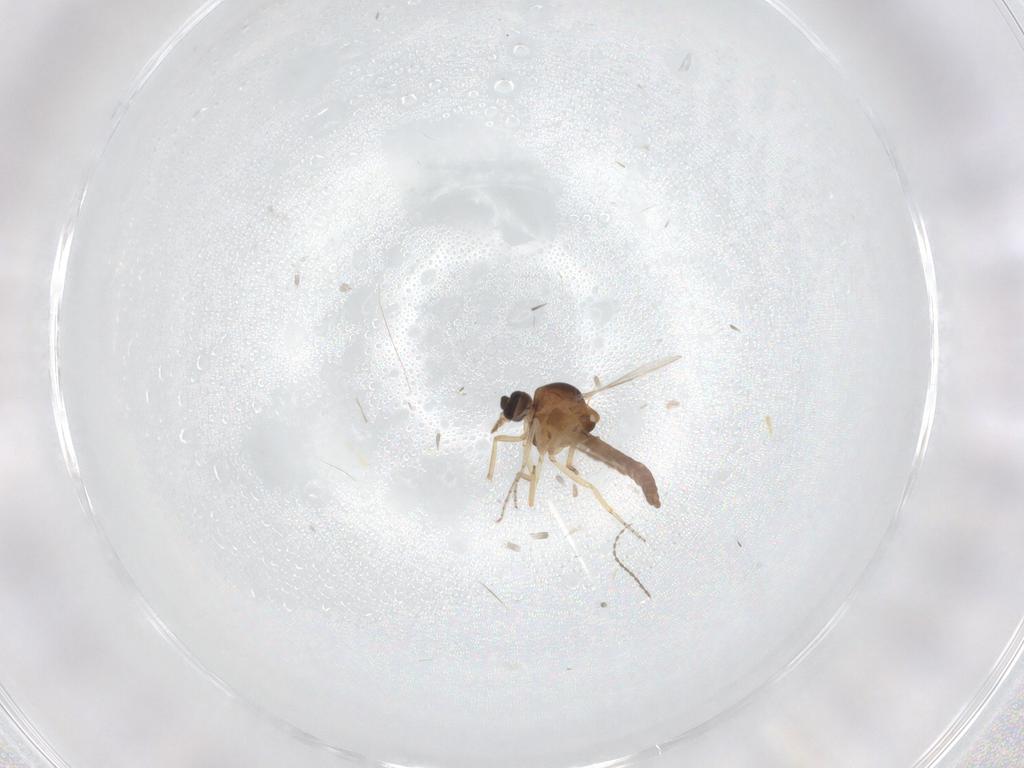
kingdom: Animalia
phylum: Arthropoda
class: Insecta
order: Diptera
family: Ceratopogonidae
